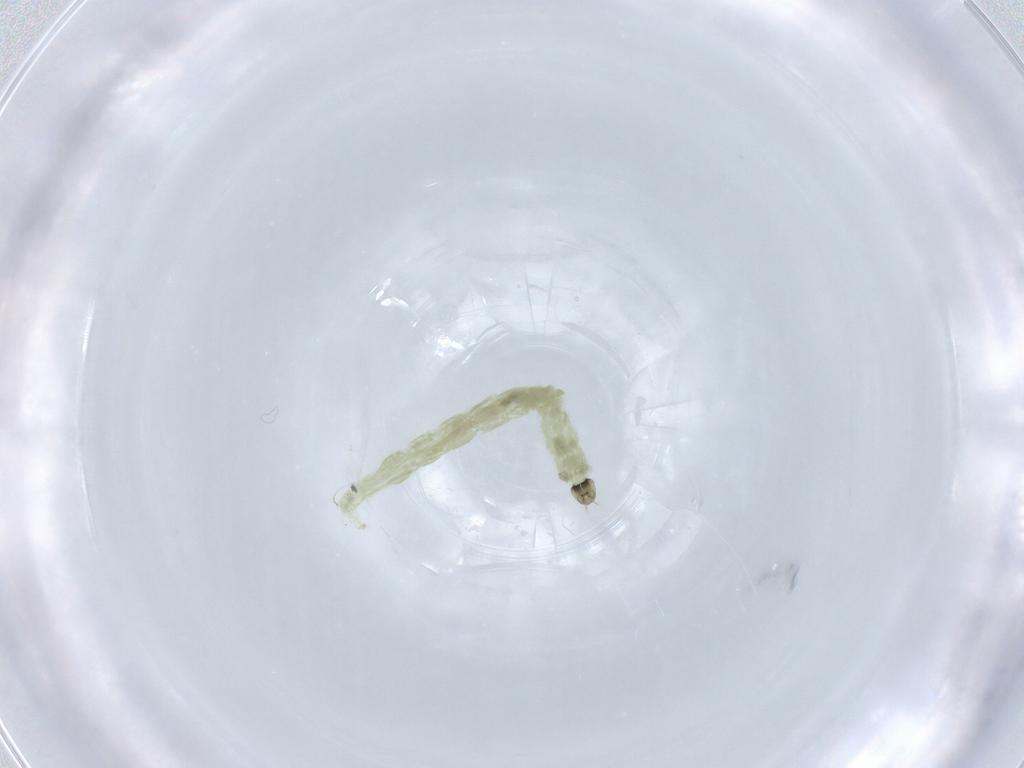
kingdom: Animalia
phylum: Arthropoda
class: Insecta
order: Diptera
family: Chironomidae
